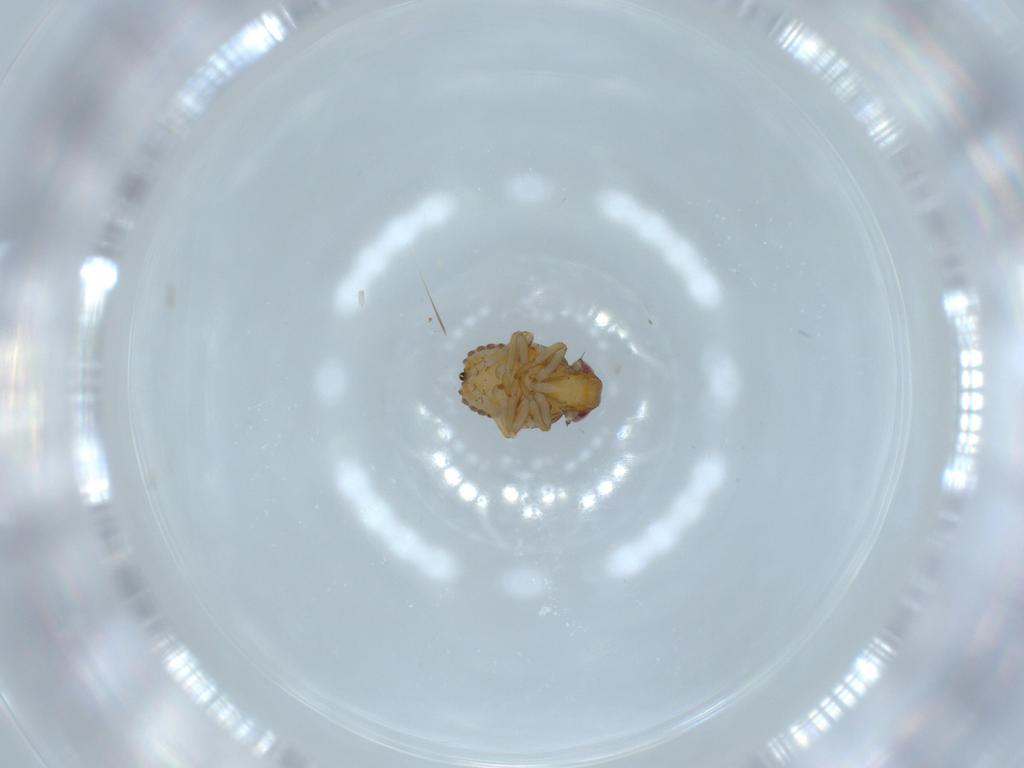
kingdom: Animalia
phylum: Arthropoda
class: Insecta
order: Hemiptera
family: Issidae
